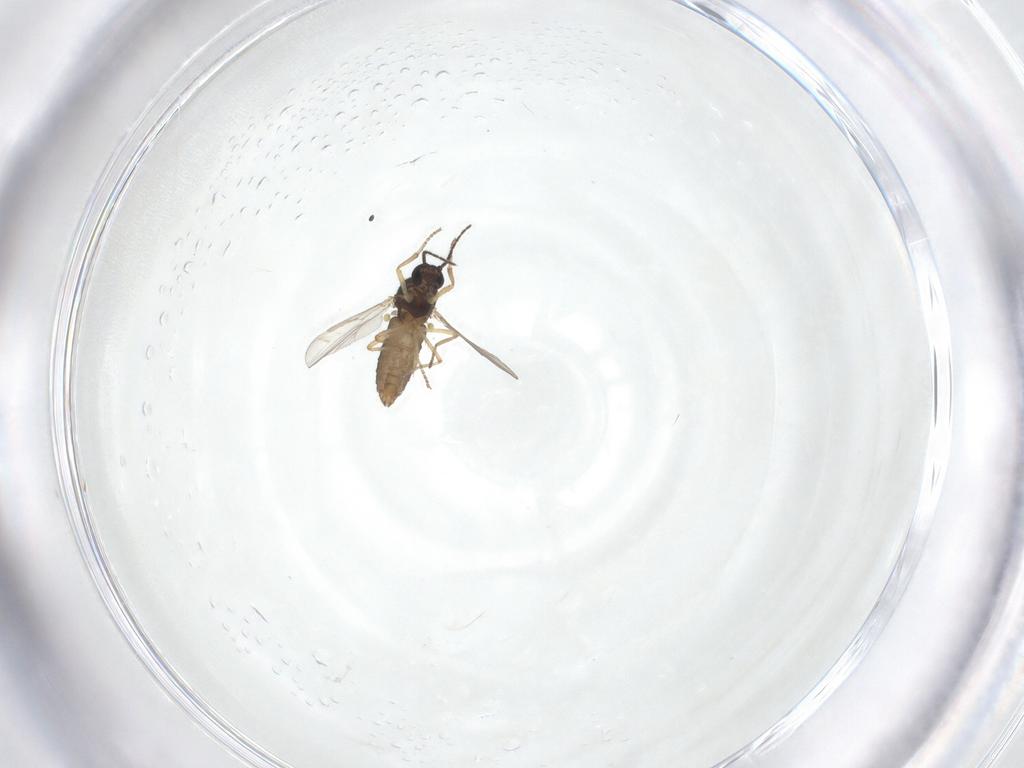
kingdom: Animalia
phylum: Arthropoda
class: Insecta
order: Diptera
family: Ceratopogonidae
